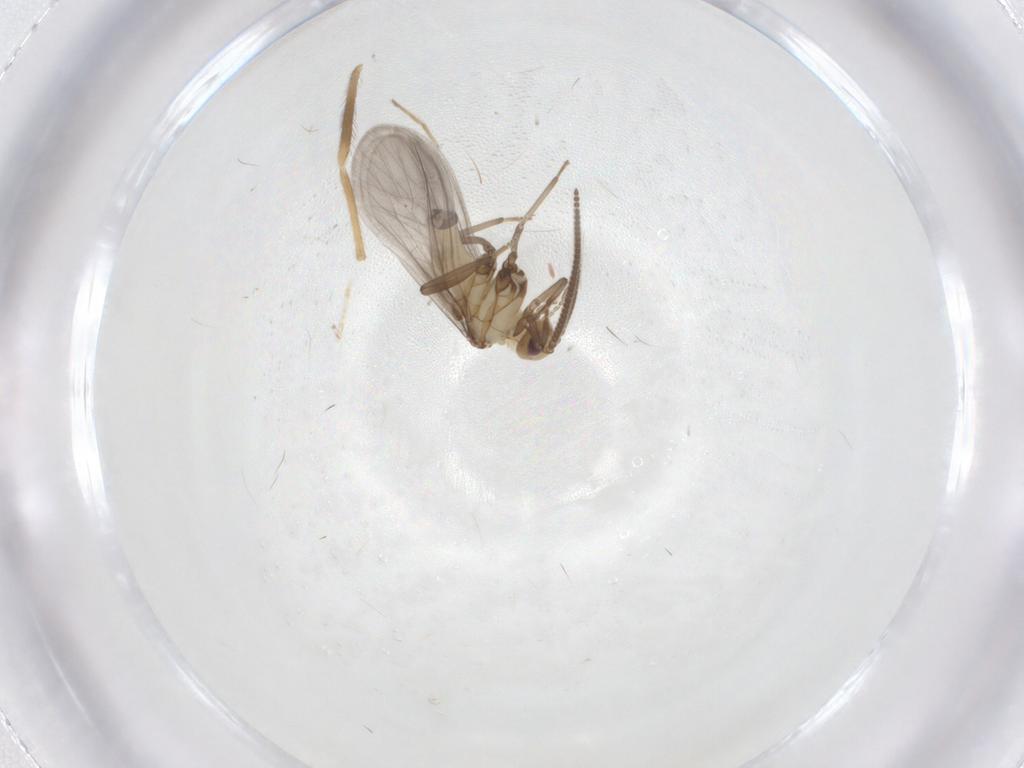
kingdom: Animalia
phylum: Arthropoda
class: Insecta
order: Neuroptera
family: Coniopterygidae
